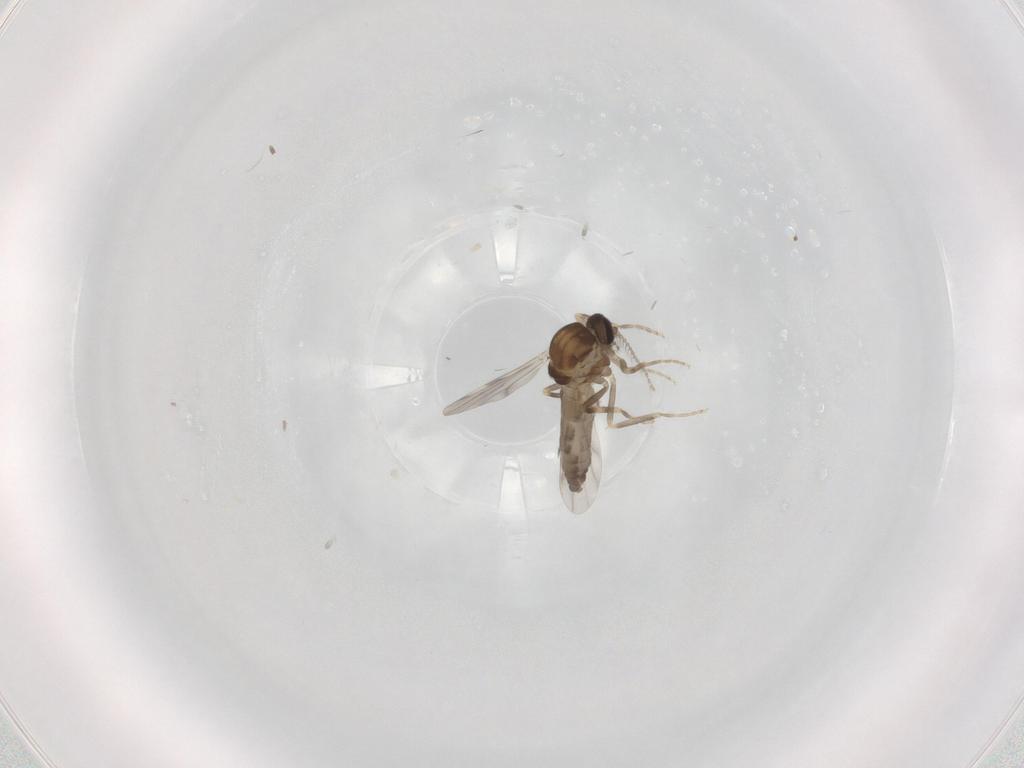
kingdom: Animalia
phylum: Arthropoda
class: Insecta
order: Diptera
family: Ceratopogonidae
